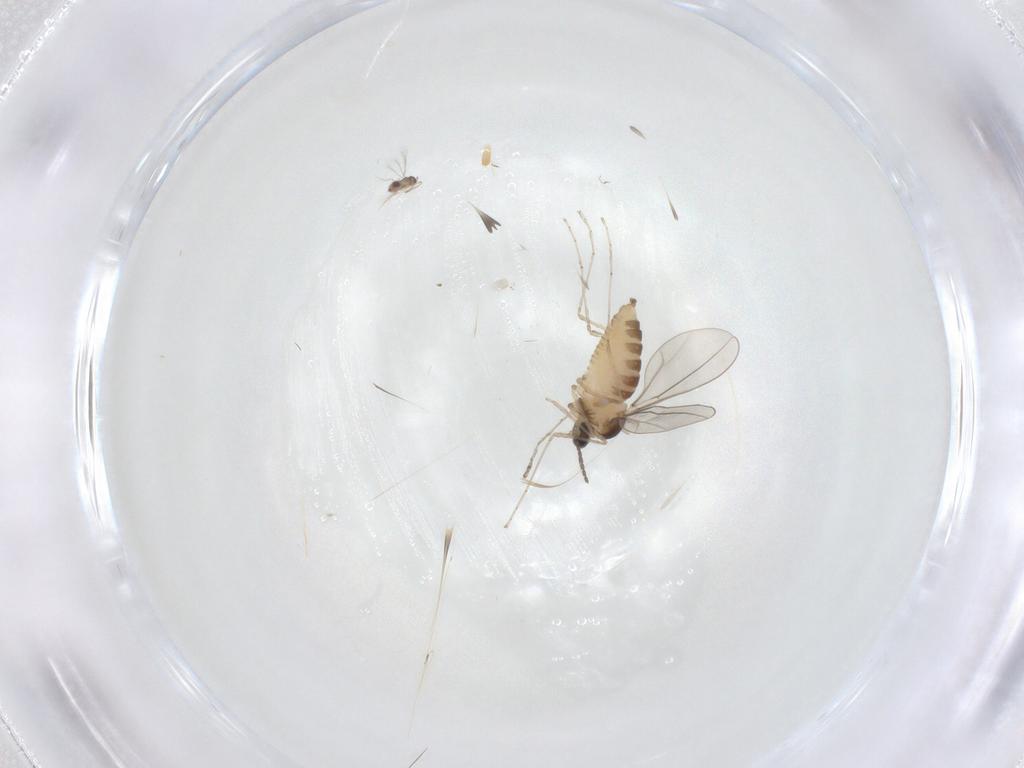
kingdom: Animalia
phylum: Arthropoda
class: Insecta
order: Diptera
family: Cecidomyiidae
